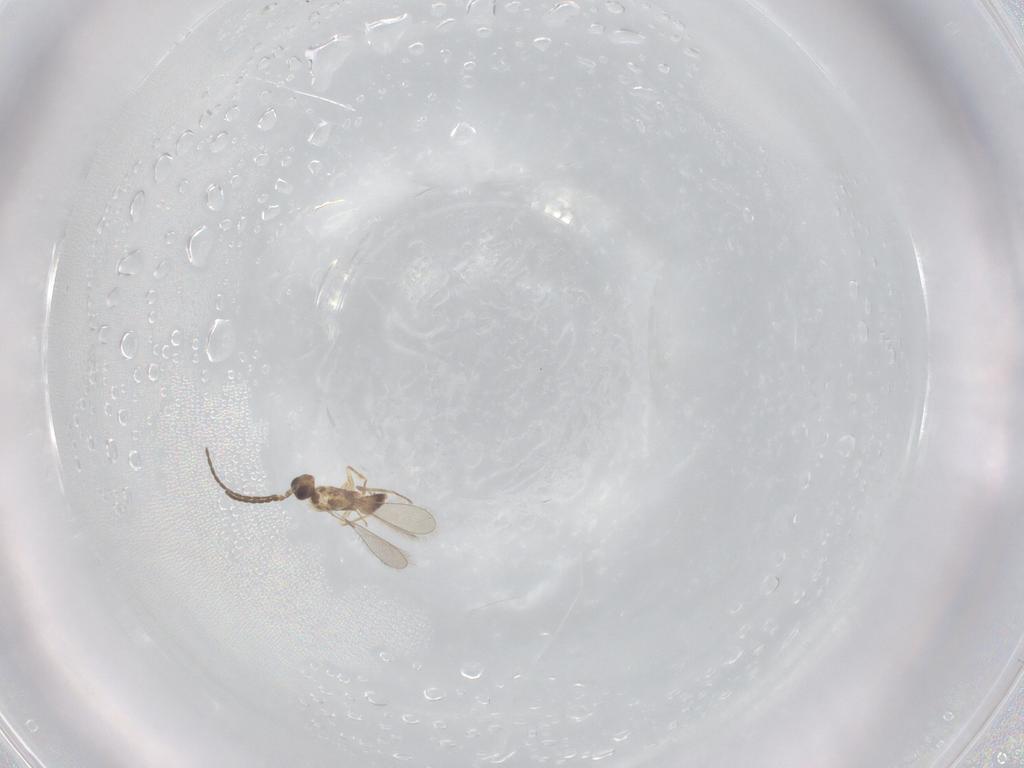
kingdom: Animalia
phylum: Arthropoda
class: Insecta
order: Hymenoptera
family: Mymaridae
